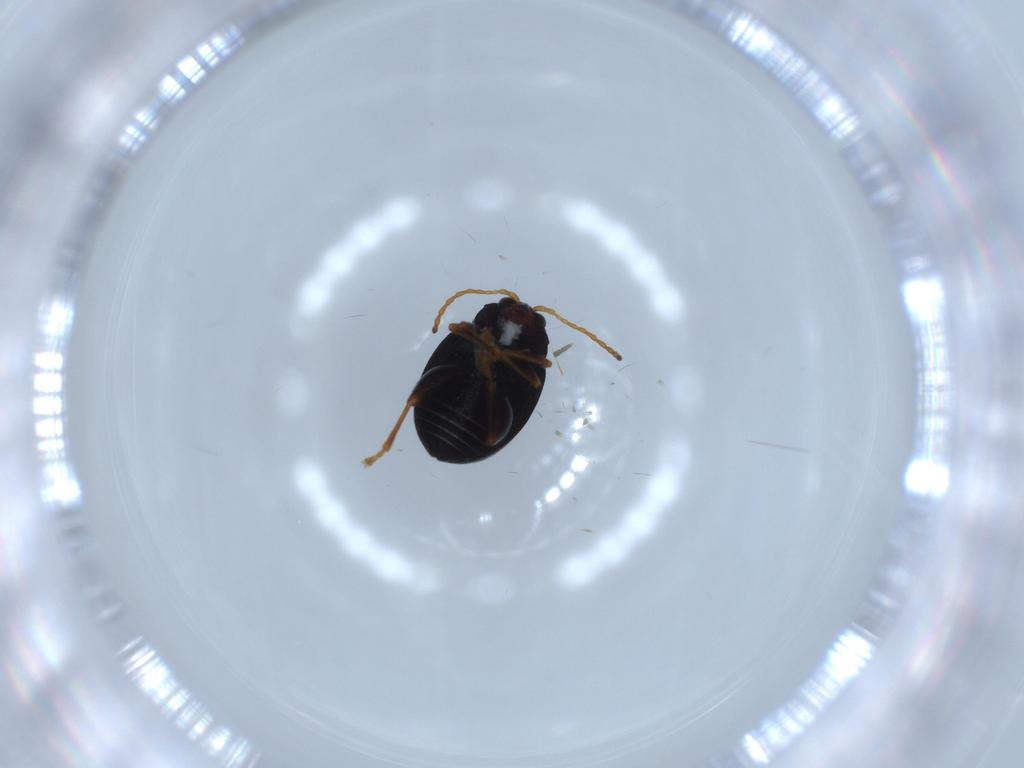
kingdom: Animalia
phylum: Arthropoda
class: Insecta
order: Coleoptera
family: Chrysomelidae
